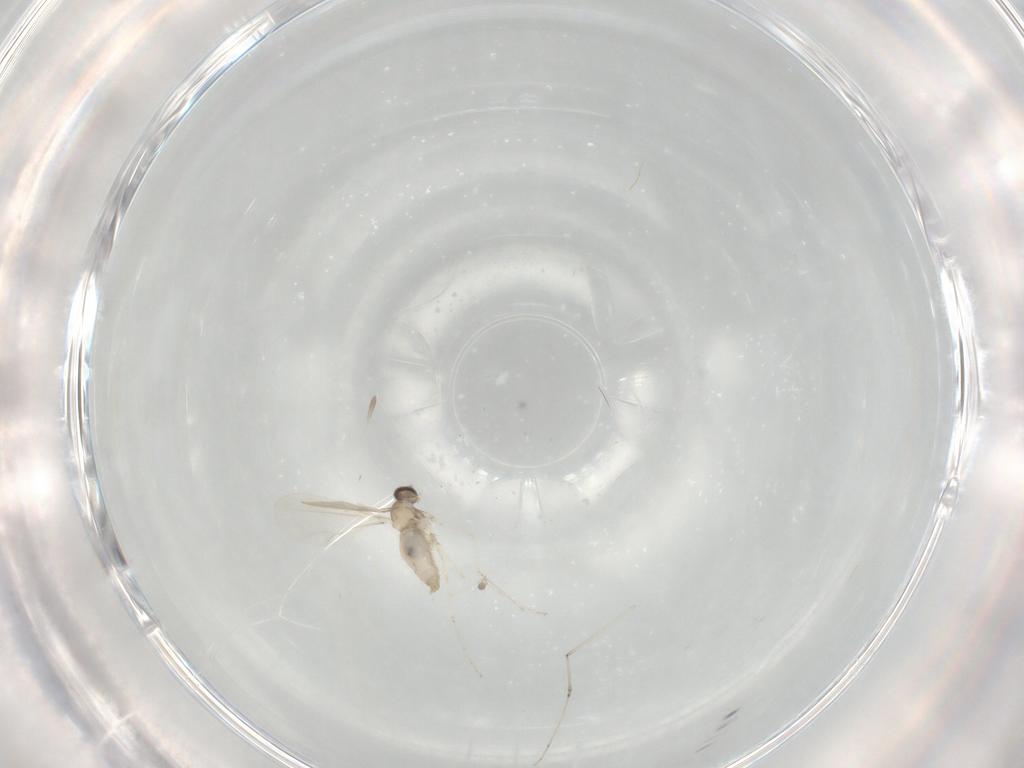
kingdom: Animalia
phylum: Arthropoda
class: Insecta
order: Diptera
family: Cecidomyiidae
